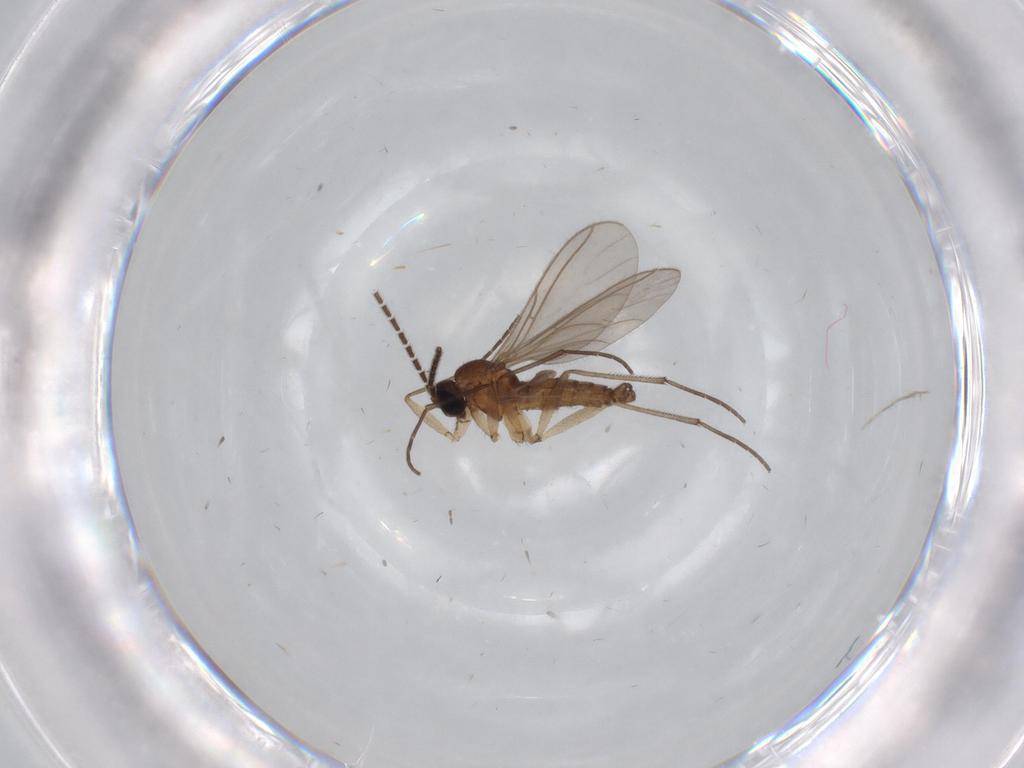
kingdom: Animalia
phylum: Arthropoda
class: Insecta
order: Diptera
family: Sciaridae
